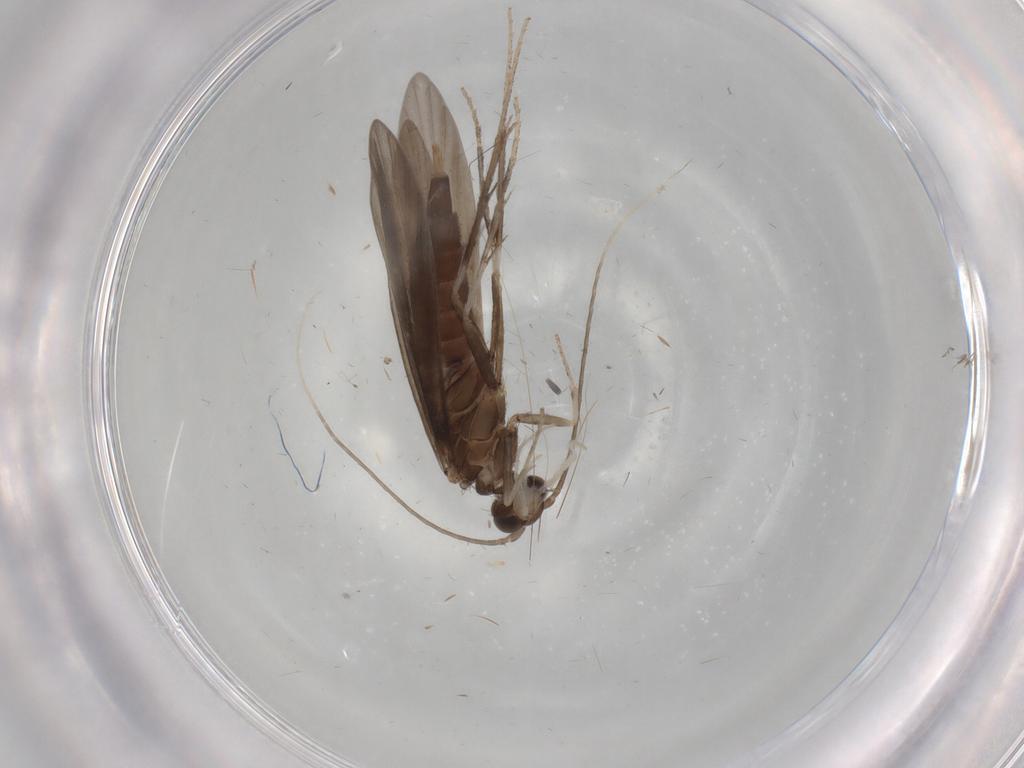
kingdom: Animalia
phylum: Arthropoda
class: Insecta
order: Trichoptera
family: Xiphocentronidae
